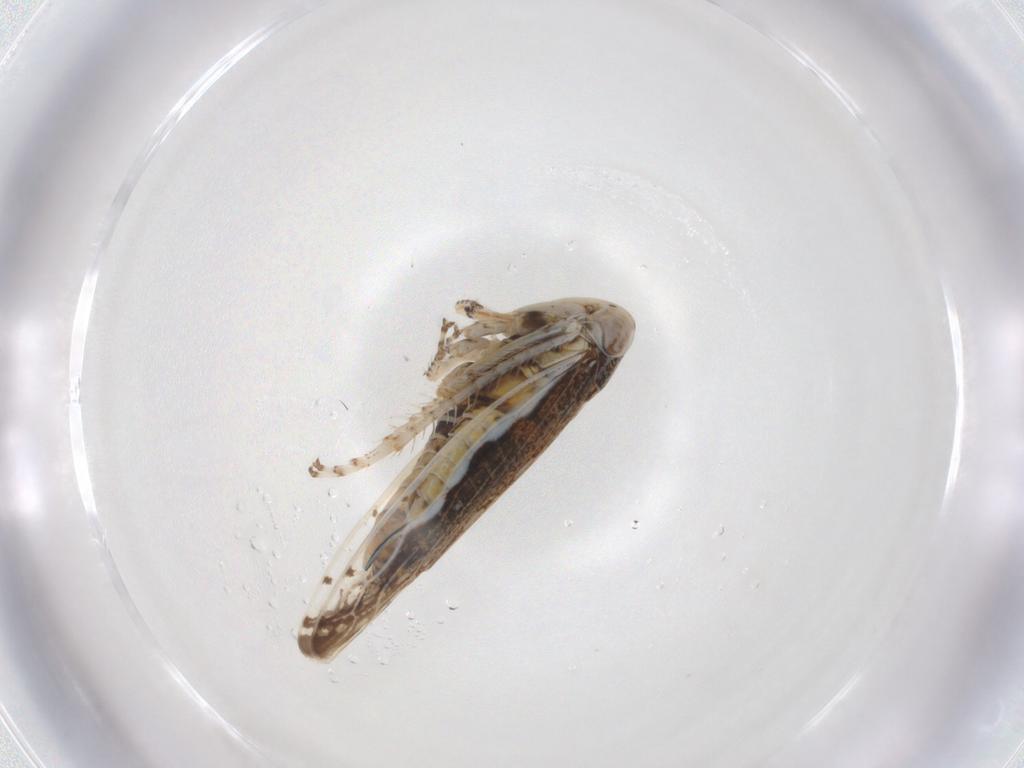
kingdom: Animalia
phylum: Arthropoda
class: Insecta
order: Hemiptera
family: Cicadellidae
